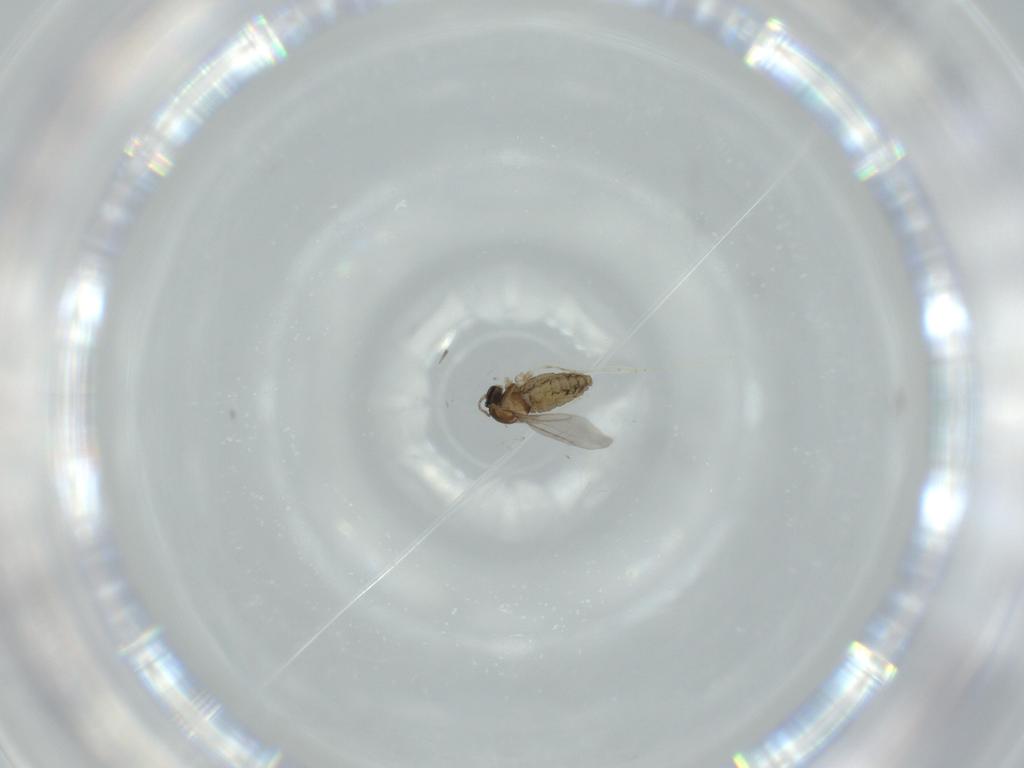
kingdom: Animalia
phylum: Arthropoda
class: Insecta
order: Diptera
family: Cecidomyiidae
